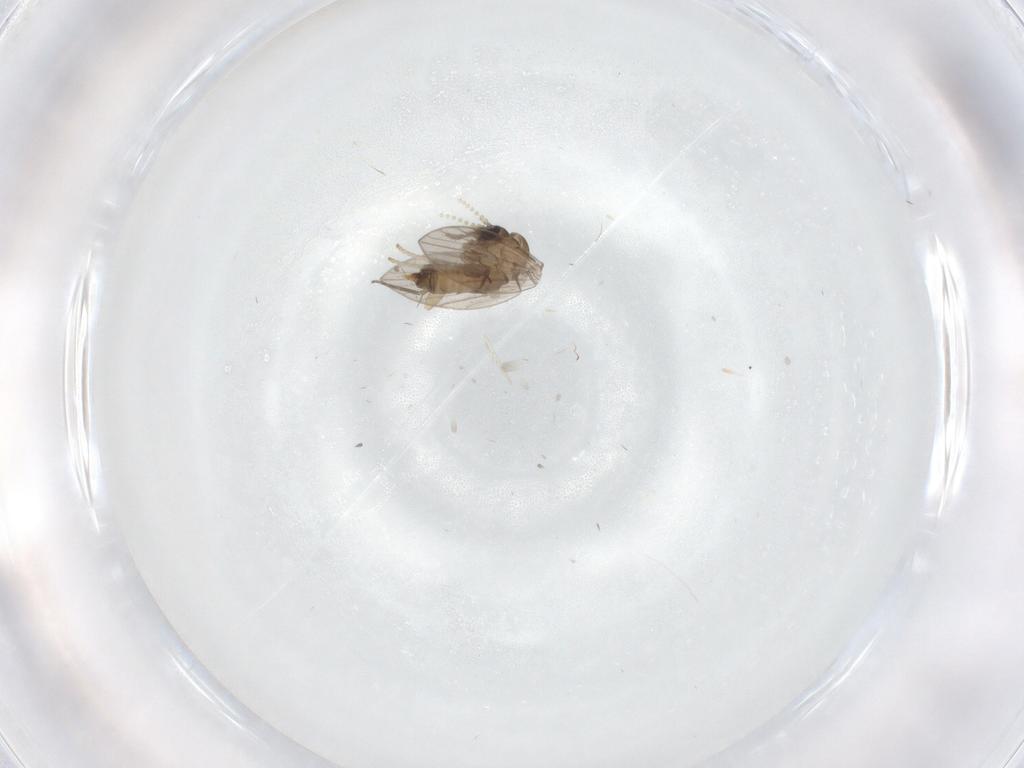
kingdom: Animalia
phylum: Arthropoda
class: Insecta
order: Diptera
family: Psychodidae
